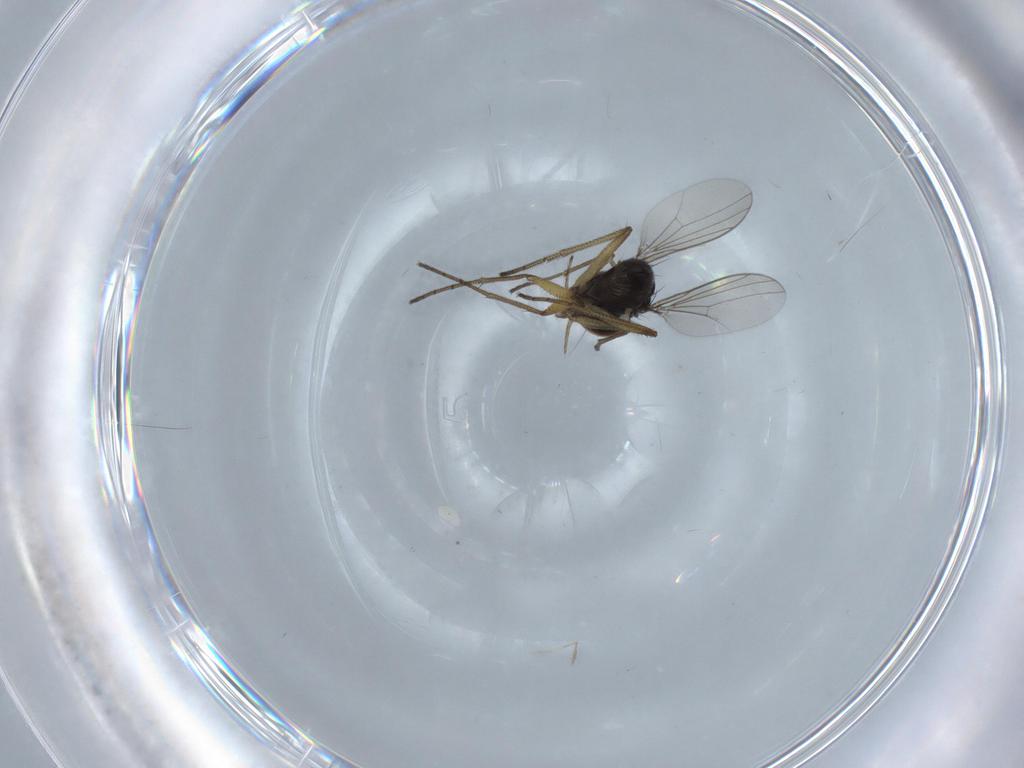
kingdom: Animalia
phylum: Arthropoda
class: Insecta
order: Diptera
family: Dolichopodidae
